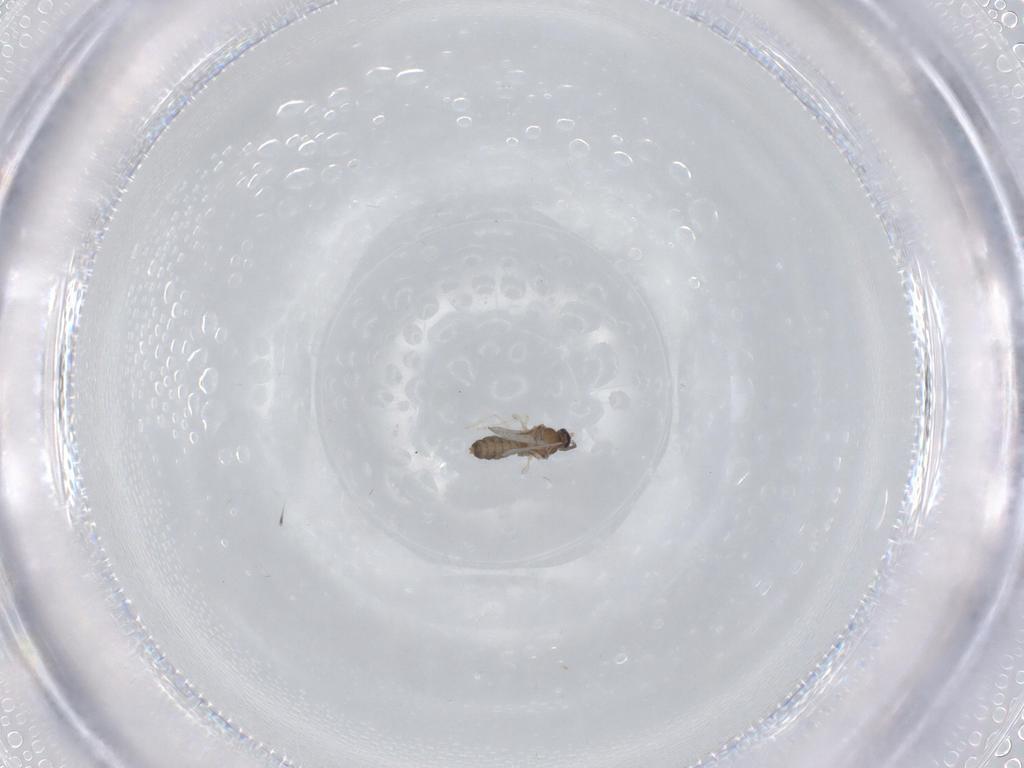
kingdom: Animalia
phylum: Arthropoda
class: Insecta
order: Diptera
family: Cecidomyiidae
